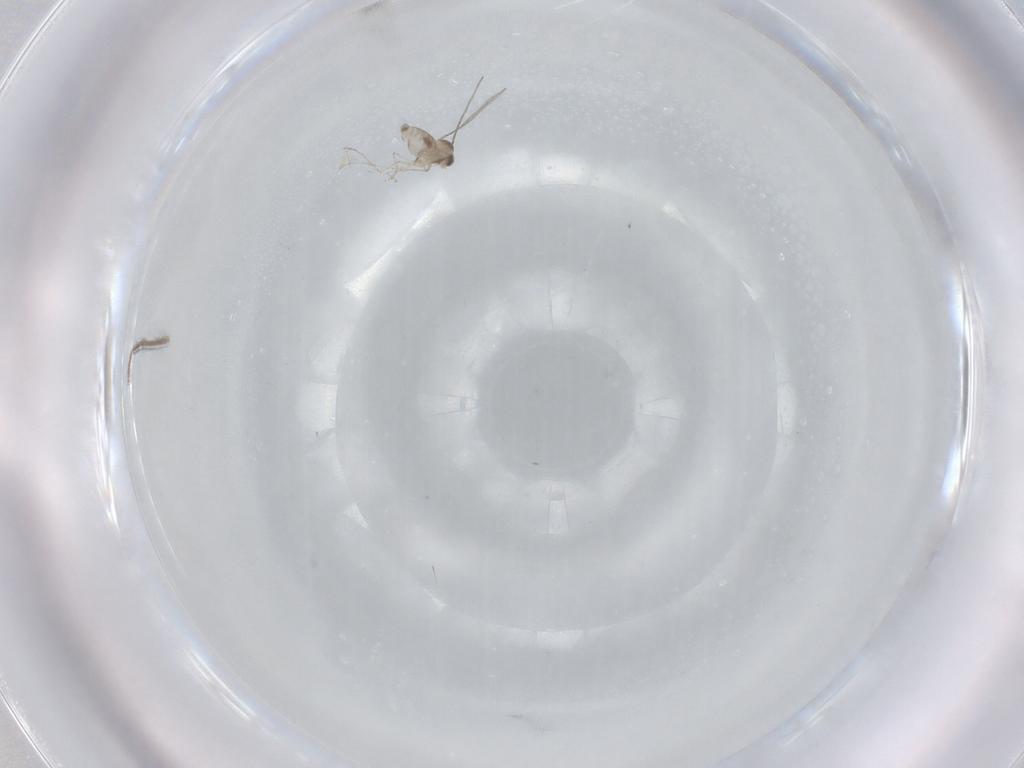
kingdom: Animalia
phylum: Arthropoda
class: Insecta
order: Diptera
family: Cecidomyiidae
